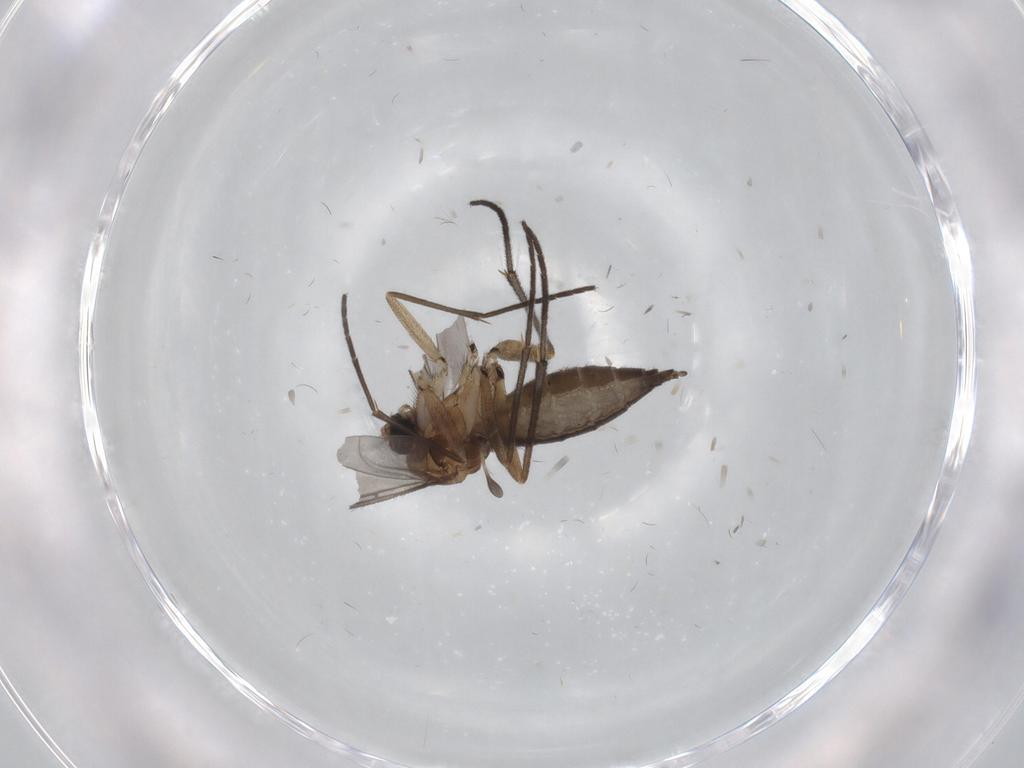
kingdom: Animalia
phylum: Arthropoda
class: Insecta
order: Diptera
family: Sciaridae
